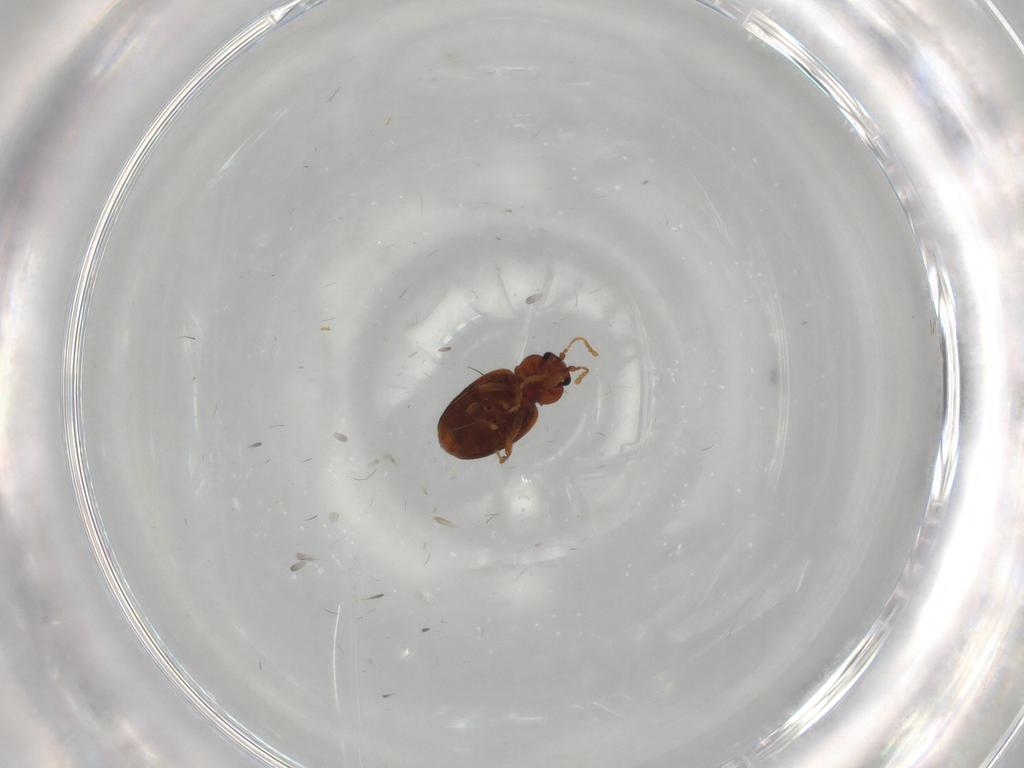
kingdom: Animalia
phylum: Arthropoda
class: Insecta
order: Coleoptera
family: Latridiidae
